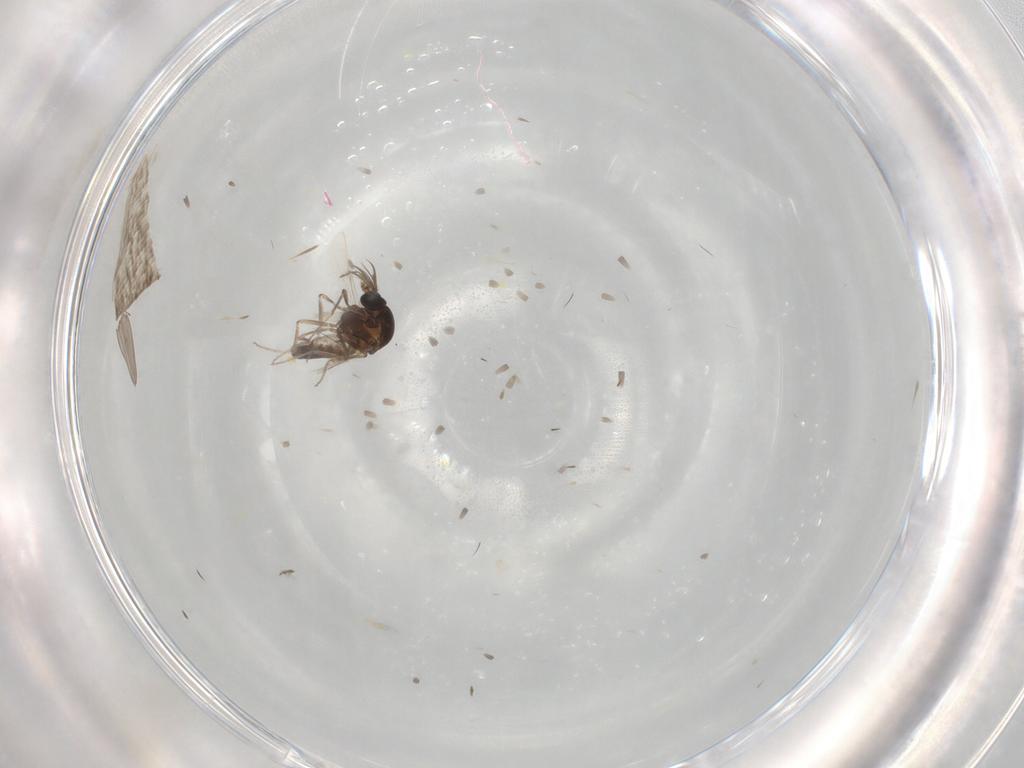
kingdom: Animalia
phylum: Arthropoda
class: Insecta
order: Diptera
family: Ceratopogonidae
